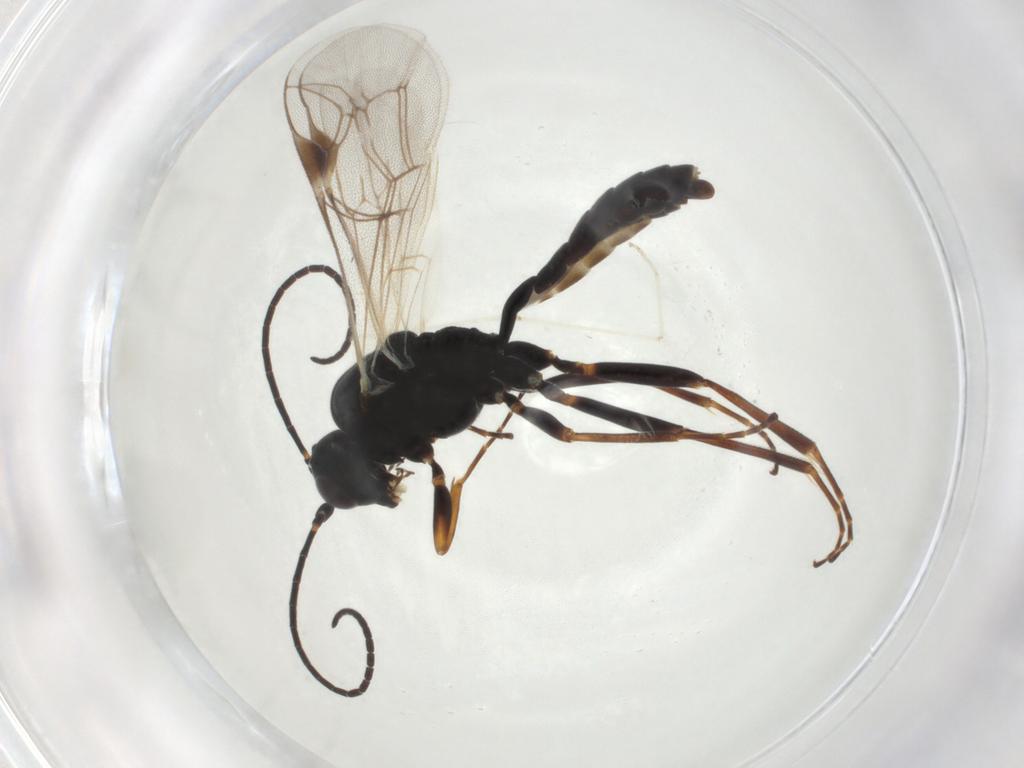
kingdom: Animalia
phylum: Arthropoda
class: Insecta
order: Hymenoptera
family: Ichneumonidae
